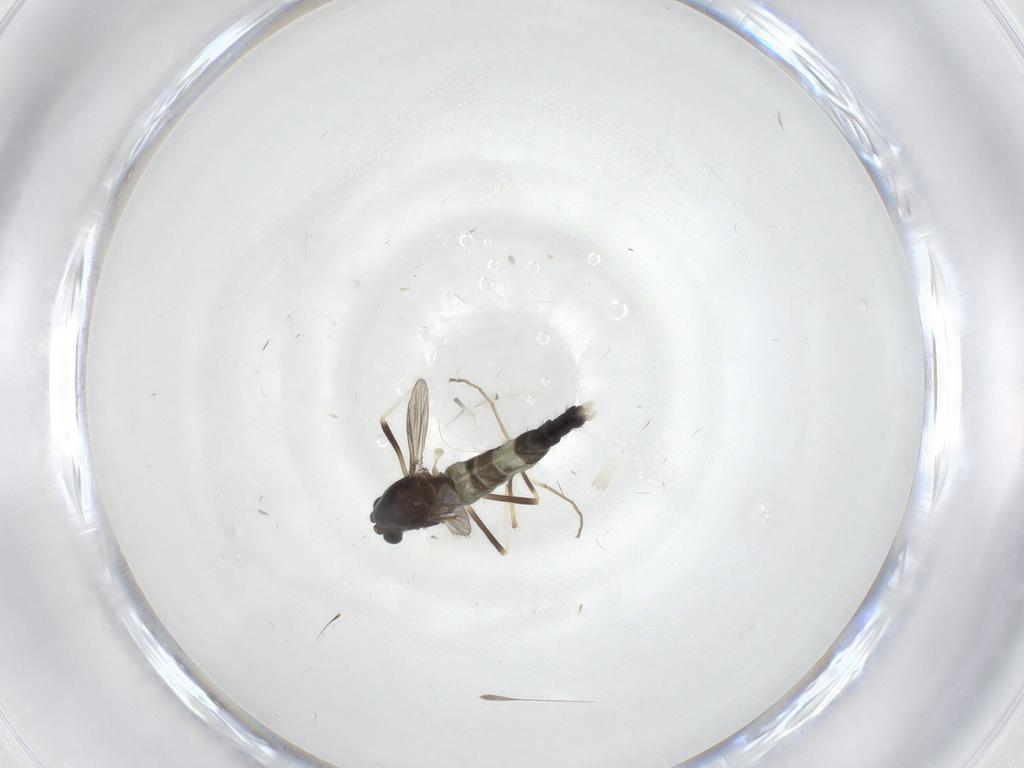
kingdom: Animalia
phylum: Arthropoda
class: Insecta
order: Diptera
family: Chironomidae
